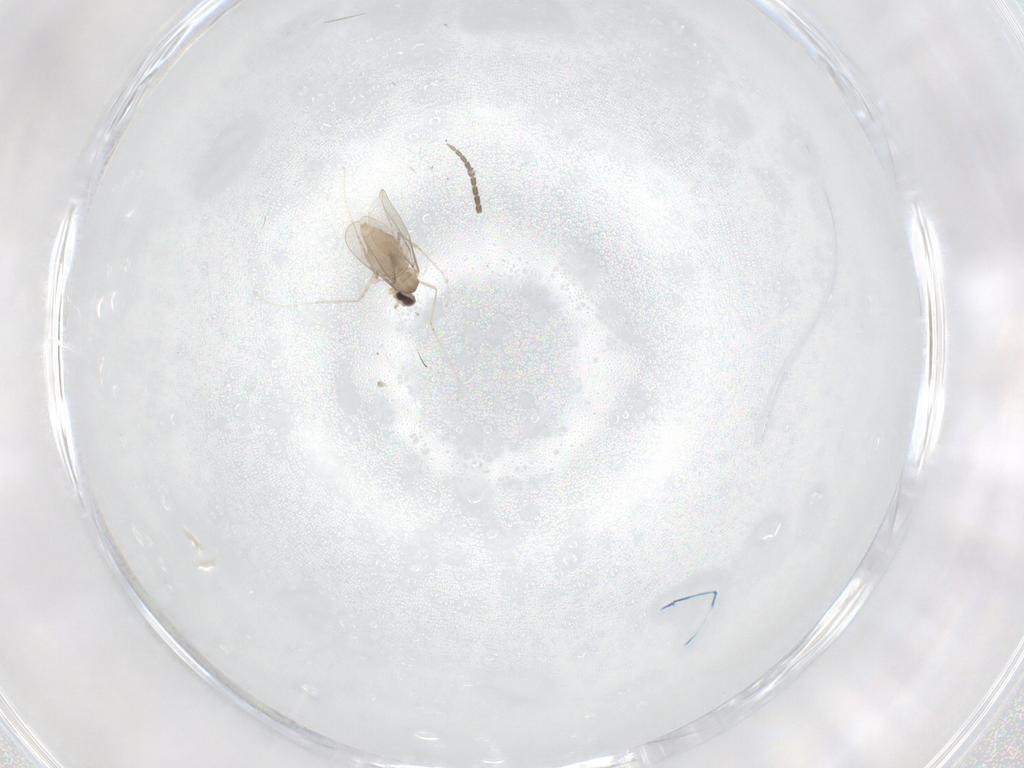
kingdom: Animalia
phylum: Arthropoda
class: Insecta
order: Diptera
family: Cecidomyiidae
